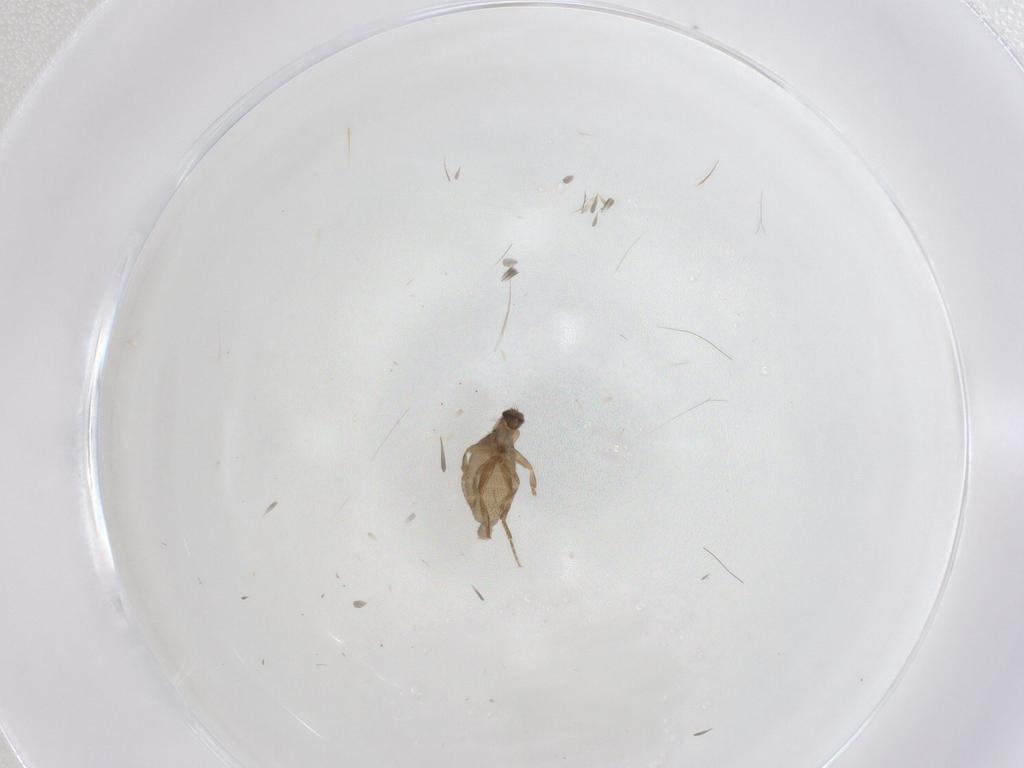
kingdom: Animalia
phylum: Arthropoda
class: Insecta
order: Diptera
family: Phoridae
